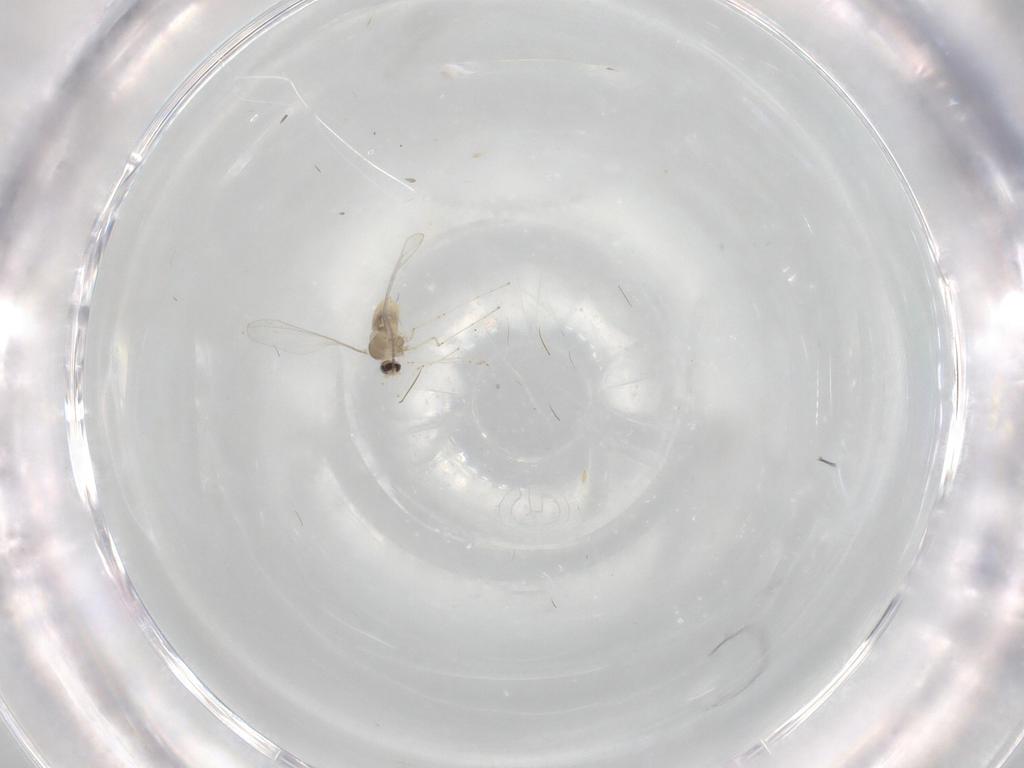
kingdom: Animalia
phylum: Arthropoda
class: Insecta
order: Diptera
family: Cecidomyiidae
